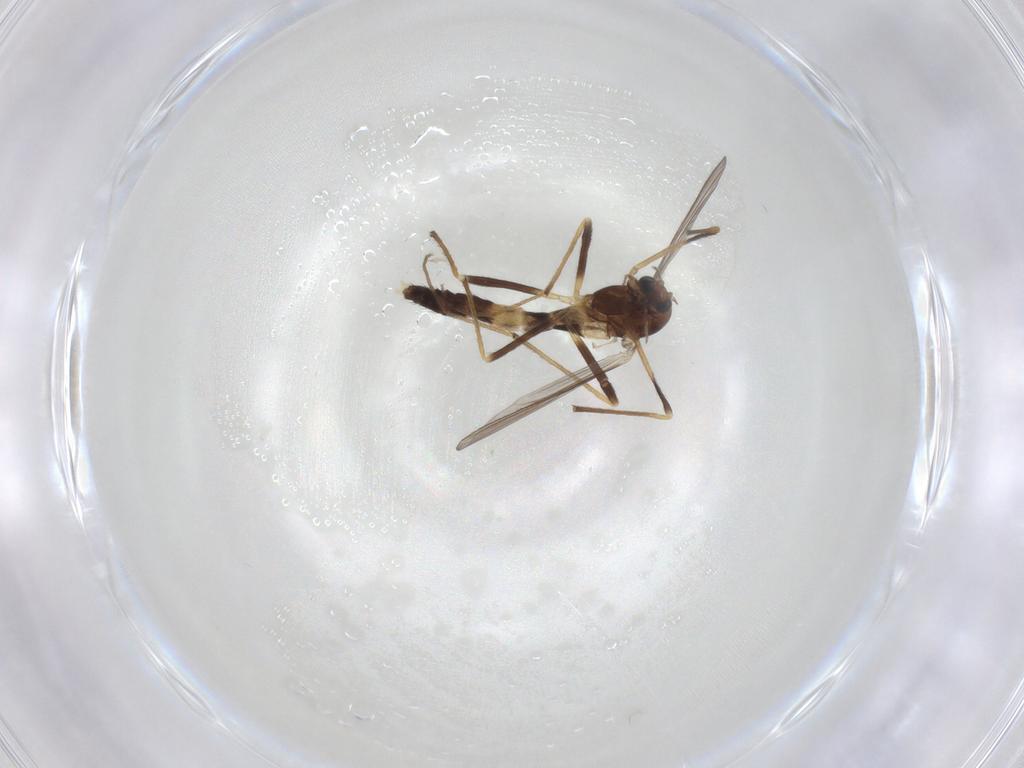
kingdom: Animalia
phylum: Arthropoda
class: Insecta
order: Diptera
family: Chironomidae
